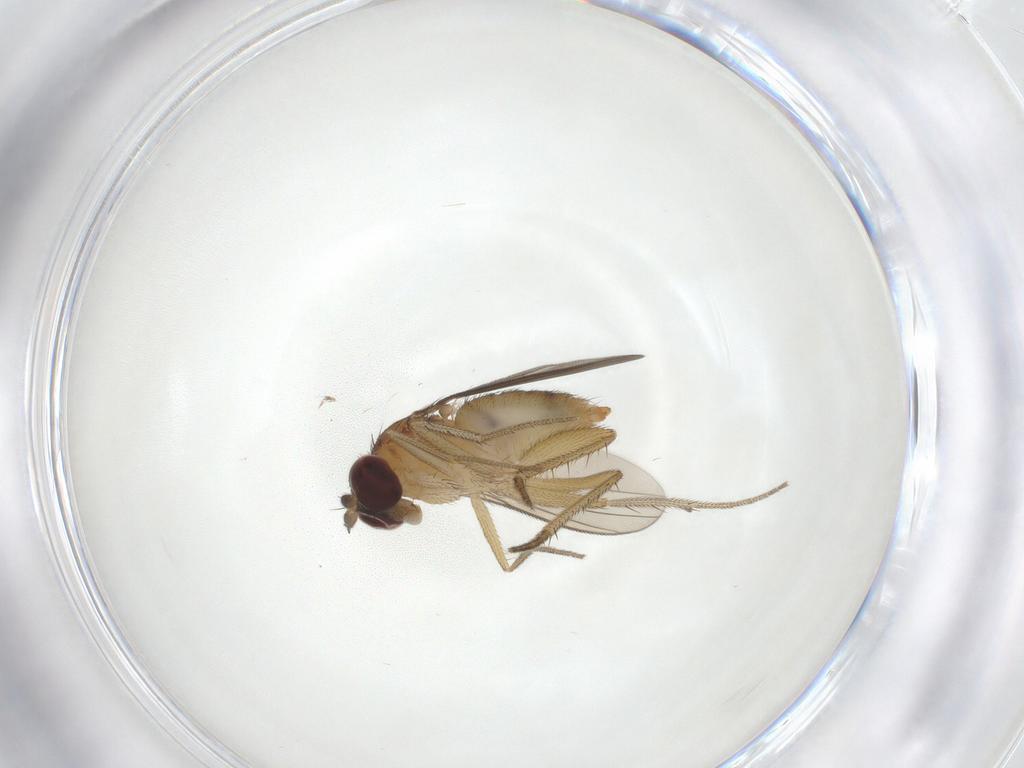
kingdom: Animalia
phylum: Arthropoda
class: Insecta
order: Diptera
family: Dolichopodidae
